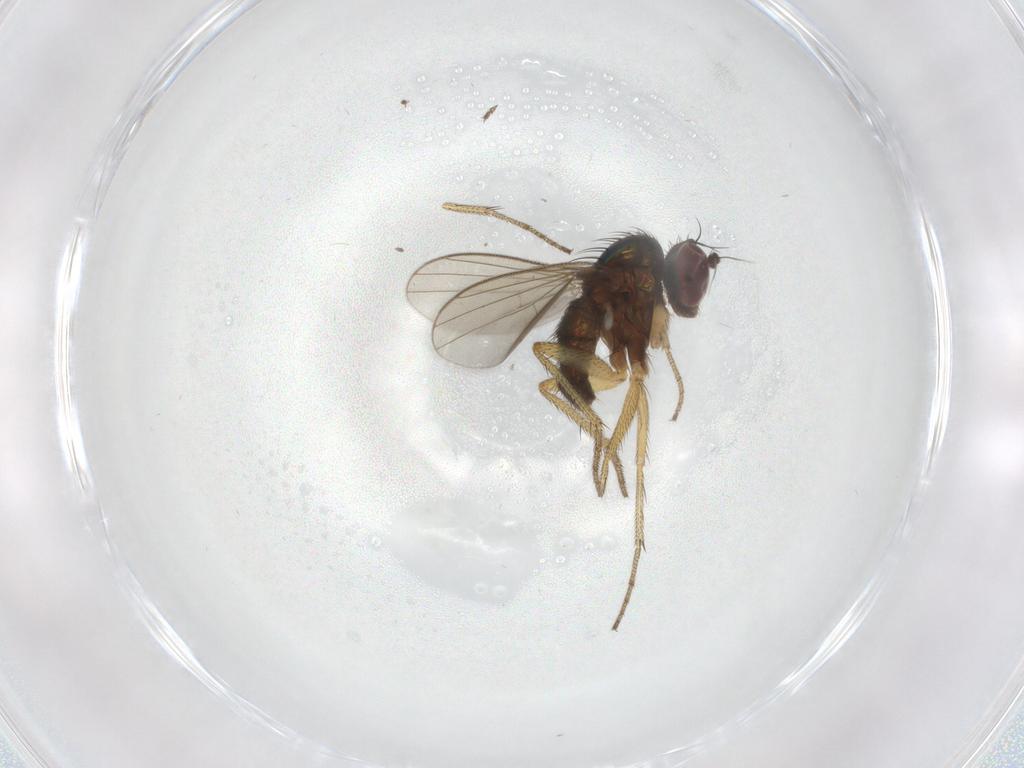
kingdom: Animalia
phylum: Arthropoda
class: Insecta
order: Diptera
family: Dolichopodidae
